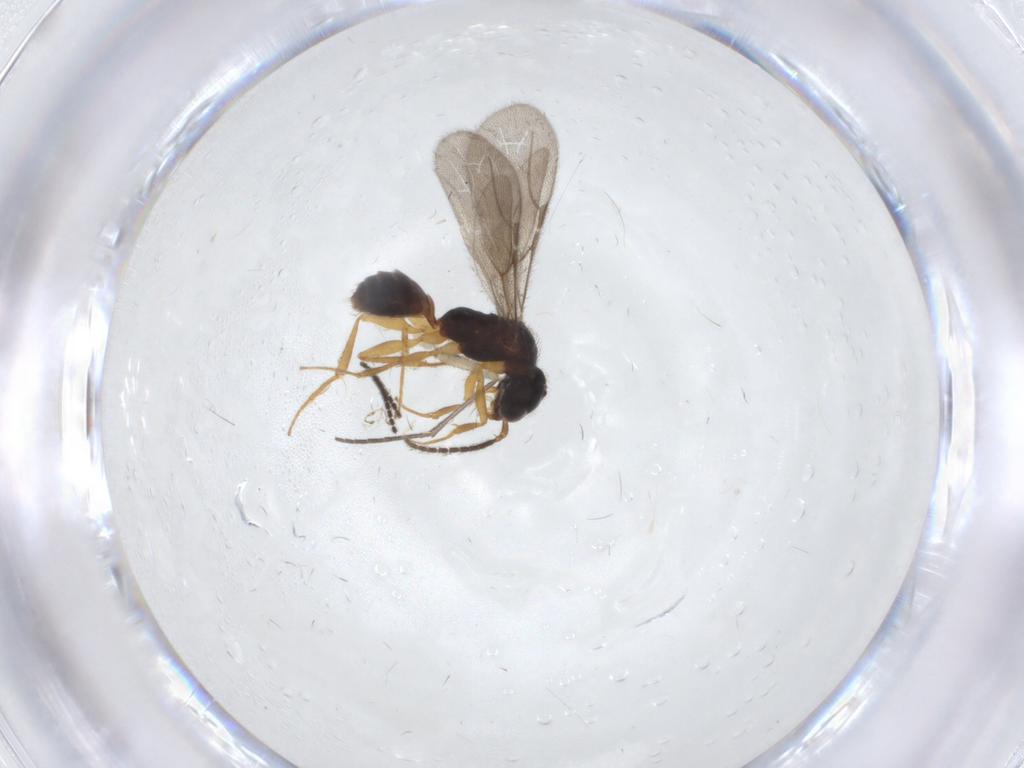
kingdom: Animalia
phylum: Arthropoda
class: Insecta
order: Hymenoptera
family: Bethylidae
